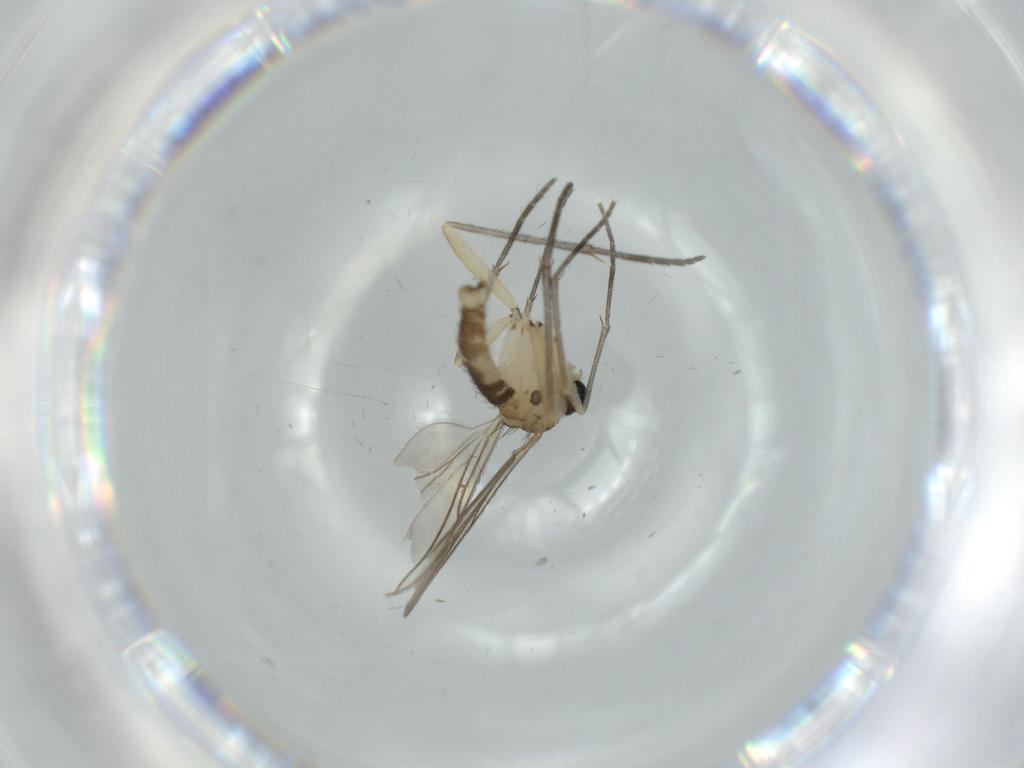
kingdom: Animalia
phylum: Arthropoda
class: Insecta
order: Diptera
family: Sciaridae
